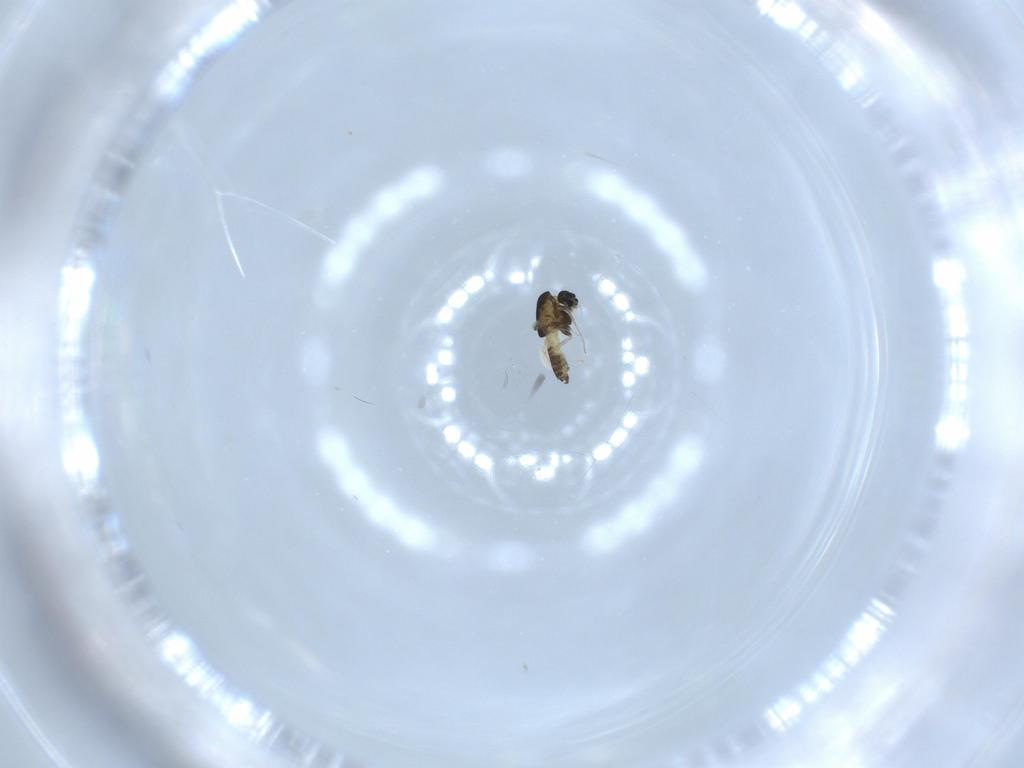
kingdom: Animalia
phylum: Arthropoda
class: Insecta
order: Diptera
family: Chironomidae
